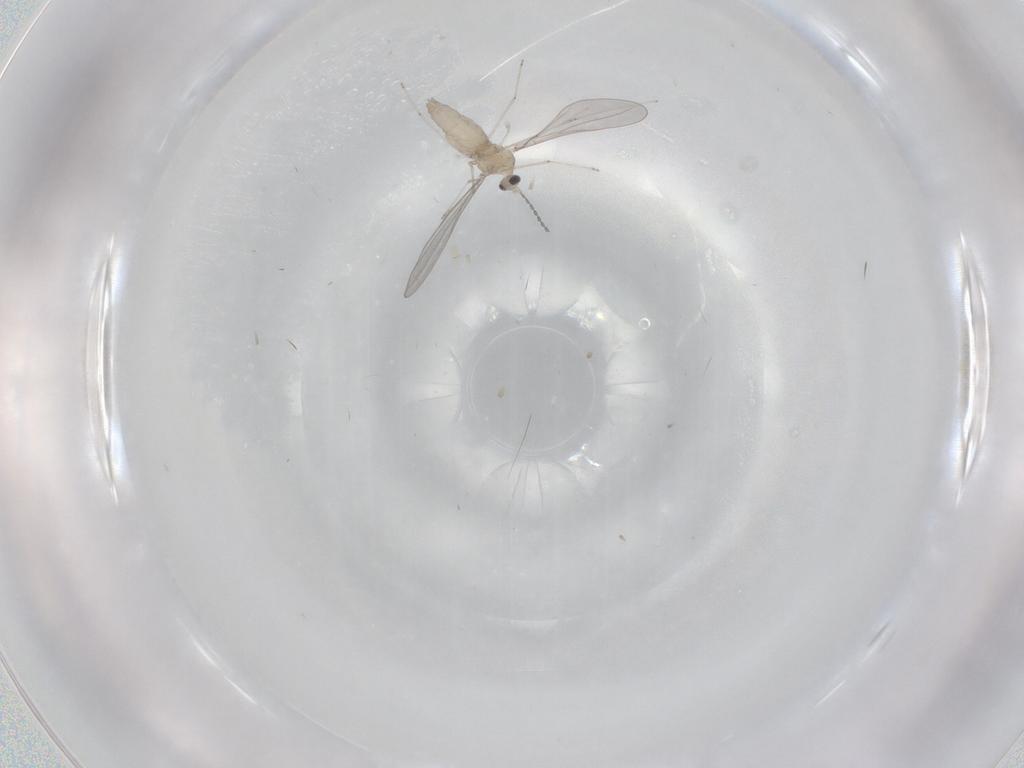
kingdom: Animalia
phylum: Arthropoda
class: Insecta
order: Diptera
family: Cecidomyiidae
